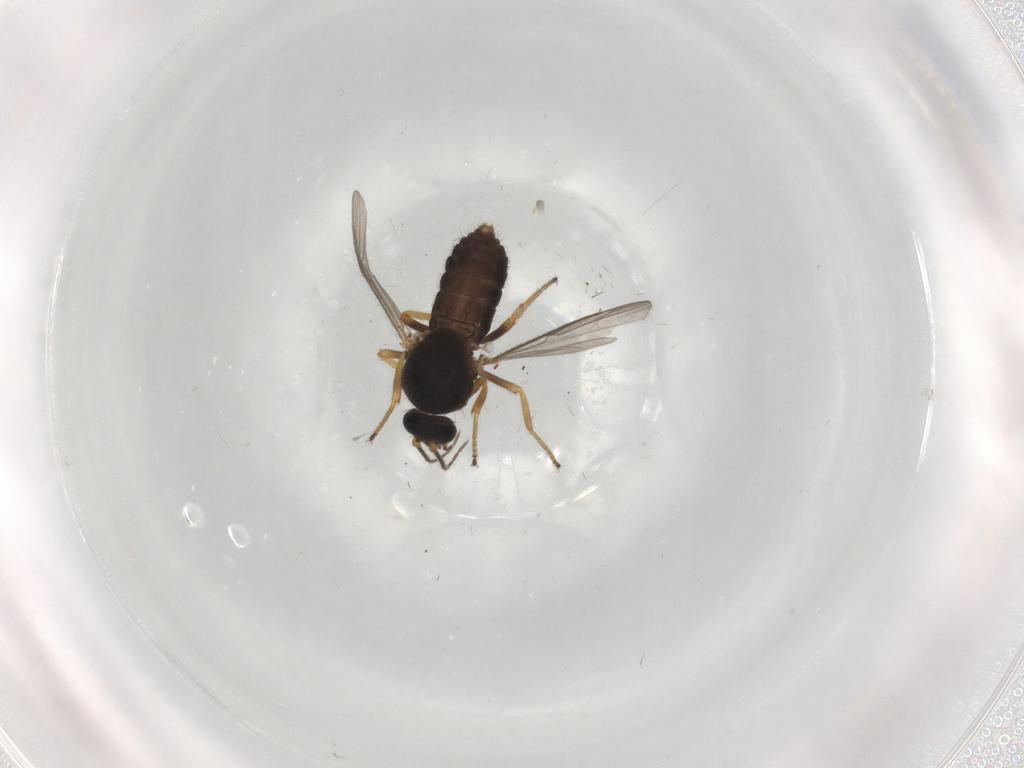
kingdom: Animalia
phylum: Arthropoda
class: Insecta
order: Diptera
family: Ceratopogonidae
